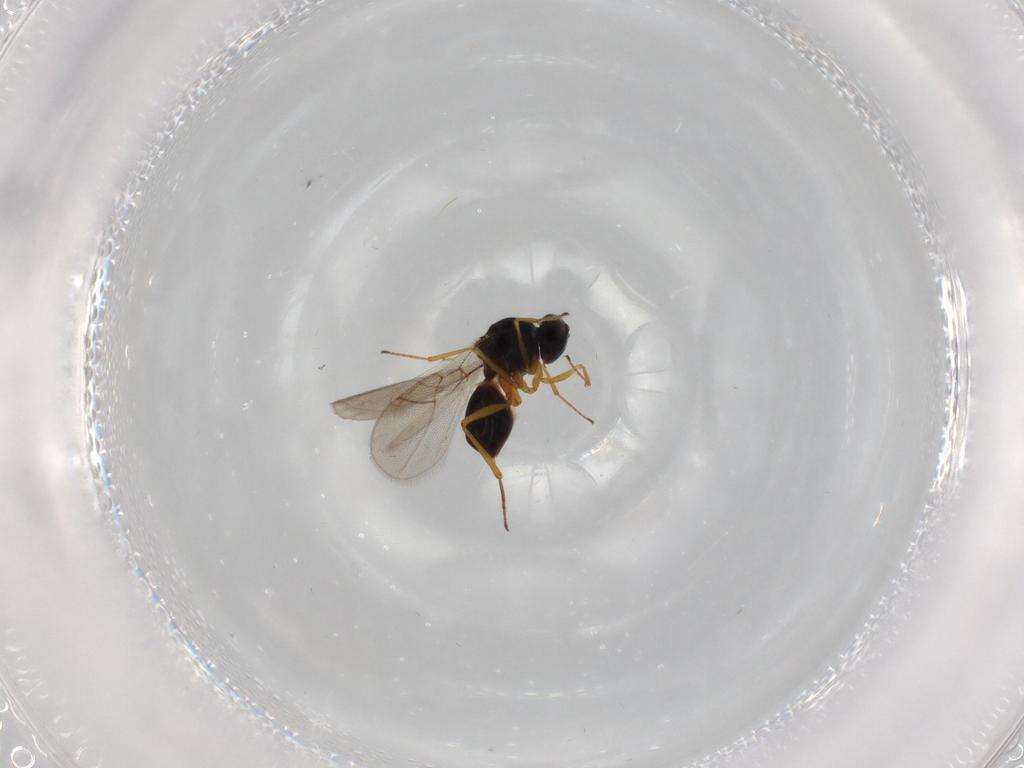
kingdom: Animalia
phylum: Arthropoda
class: Insecta
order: Hymenoptera
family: Figitidae
